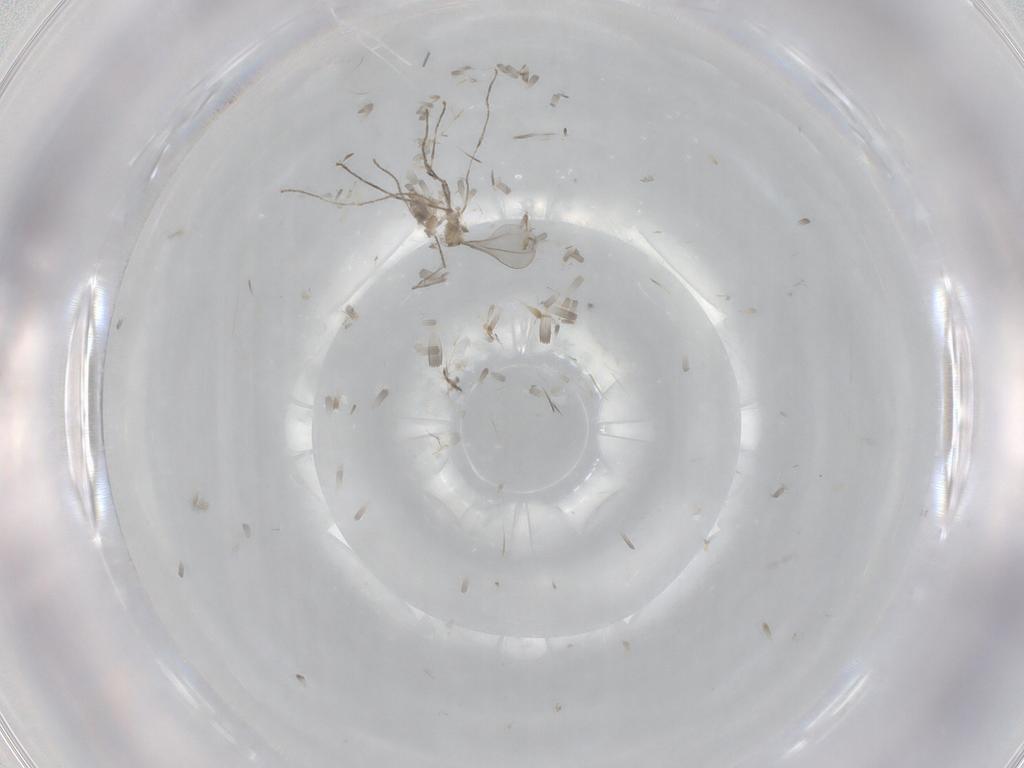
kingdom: Animalia
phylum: Arthropoda
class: Insecta
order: Diptera
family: Cecidomyiidae
